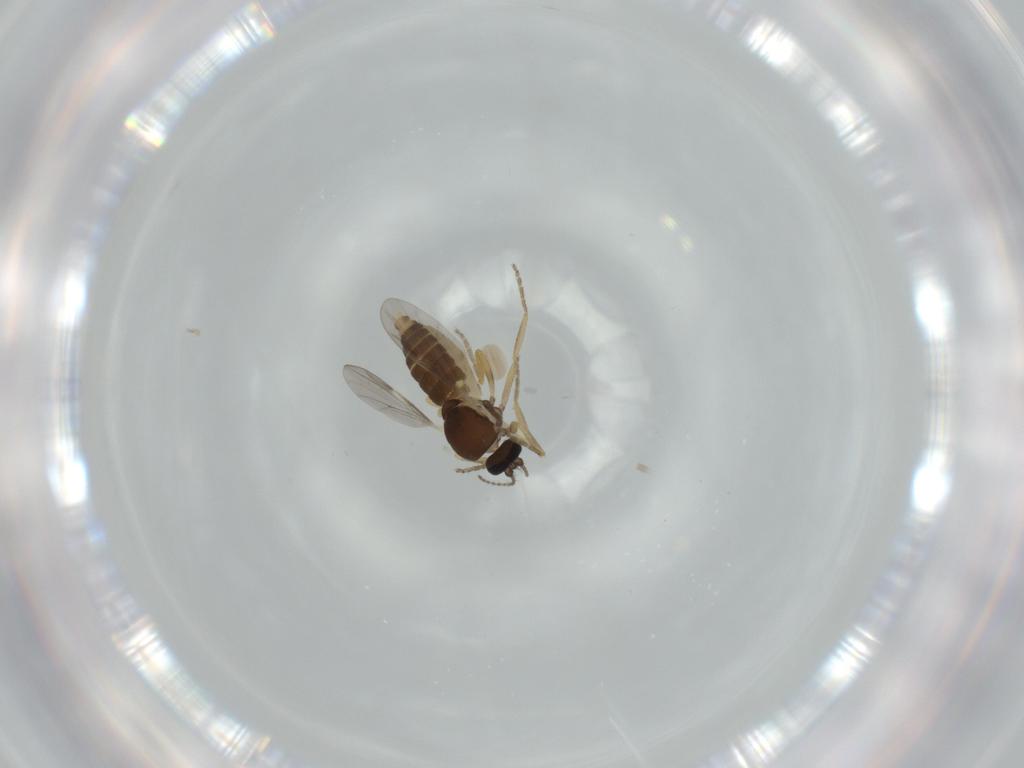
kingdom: Animalia
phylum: Arthropoda
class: Insecta
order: Diptera
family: Ceratopogonidae
